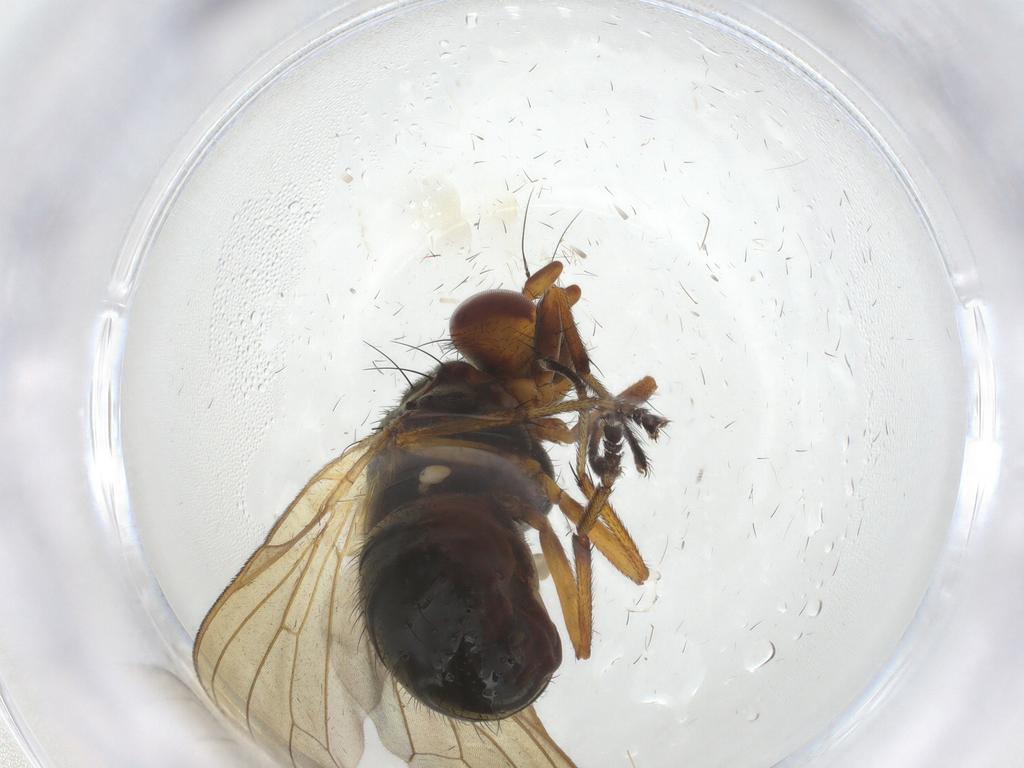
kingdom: Animalia
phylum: Arthropoda
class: Insecta
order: Diptera
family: Lauxaniidae
